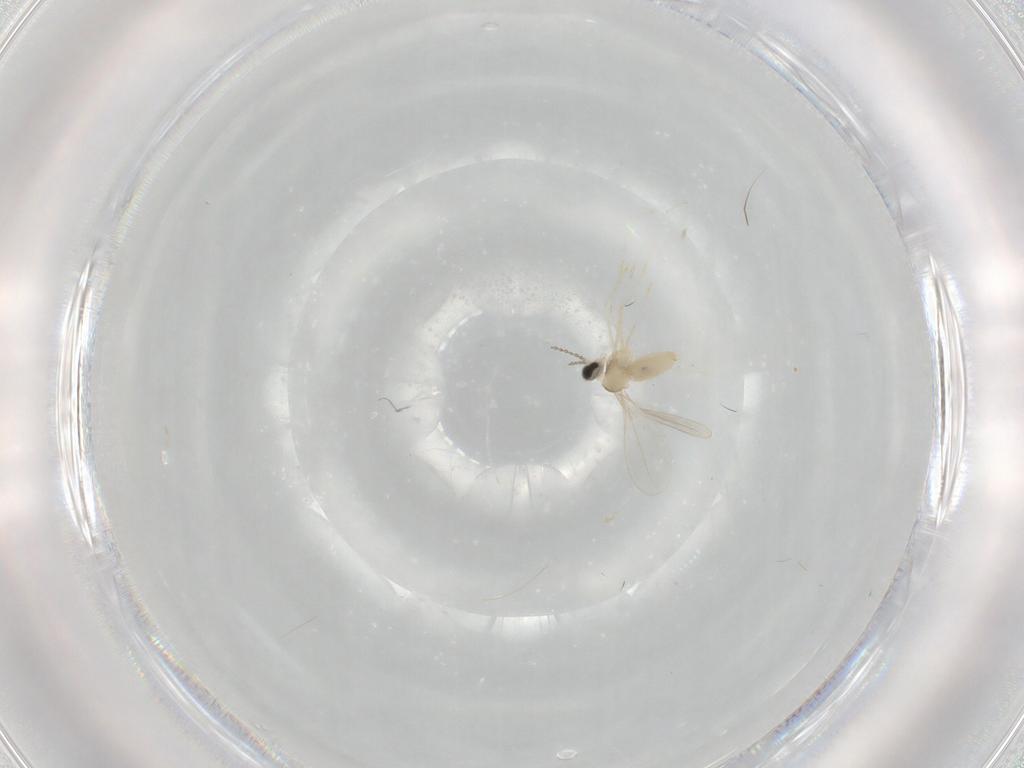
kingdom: Animalia
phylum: Arthropoda
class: Insecta
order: Diptera
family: Cecidomyiidae
